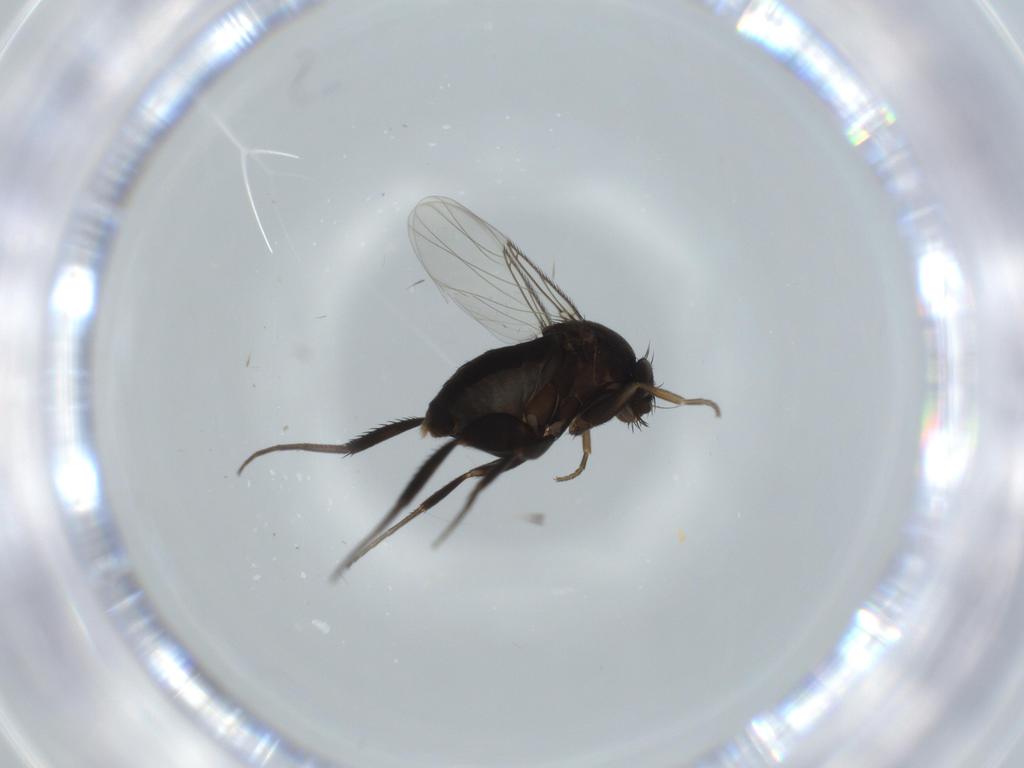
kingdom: Animalia
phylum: Arthropoda
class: Insecta
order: Diptera
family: Phoridae
